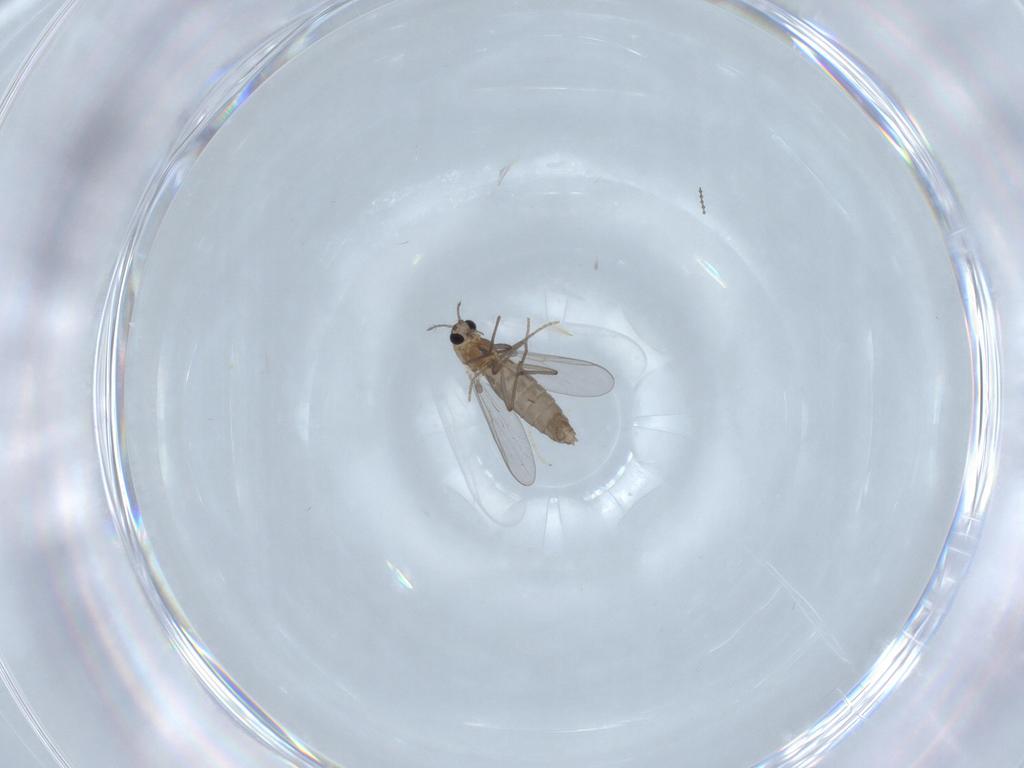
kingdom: Animalia
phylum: Arthropoda
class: Insecta
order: Diptera
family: Chironomidae
